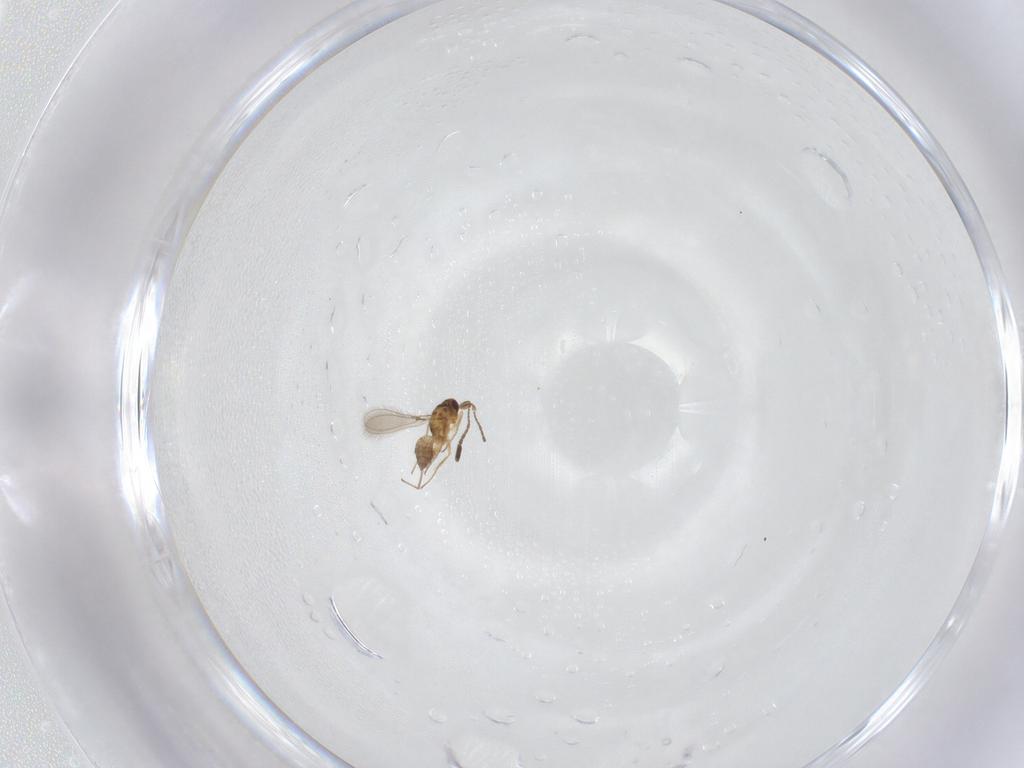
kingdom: Animalia
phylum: Arthropoda
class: Insecta
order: Hymenoptera
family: Mymaridae
